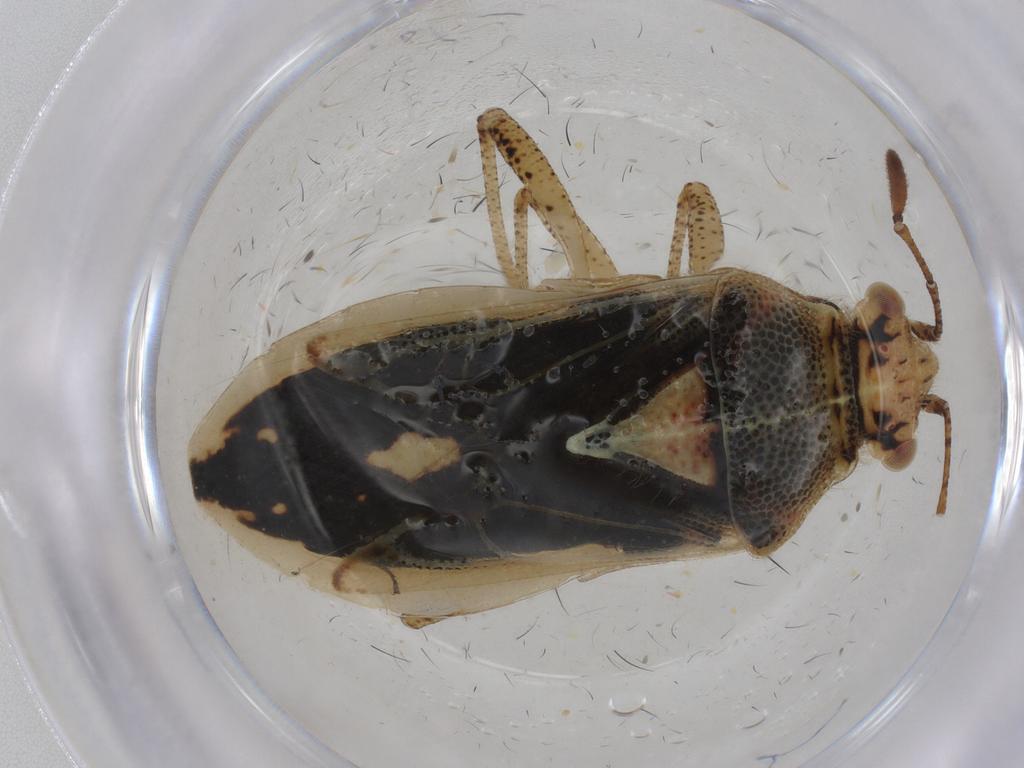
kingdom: Animalia
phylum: Arthropoda
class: Insecta
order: Hemiptera
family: Rhopalidae
